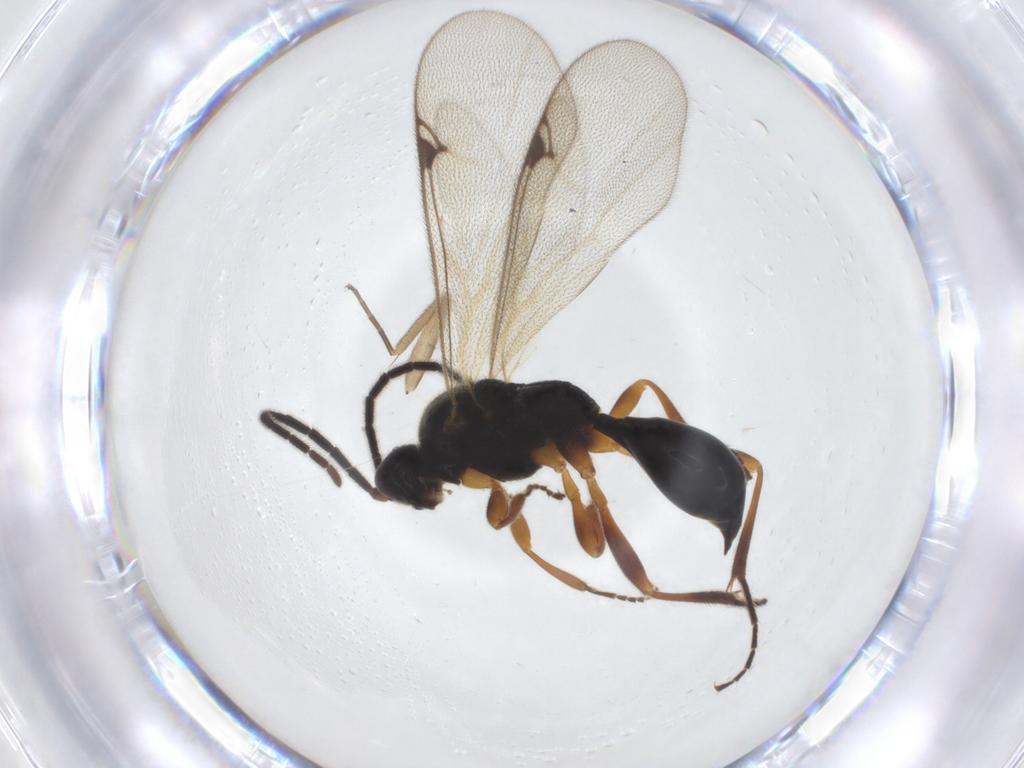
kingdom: Animalia
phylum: Arthropoda
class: Insecta
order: Hymenoptera
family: Proctotrupidae
